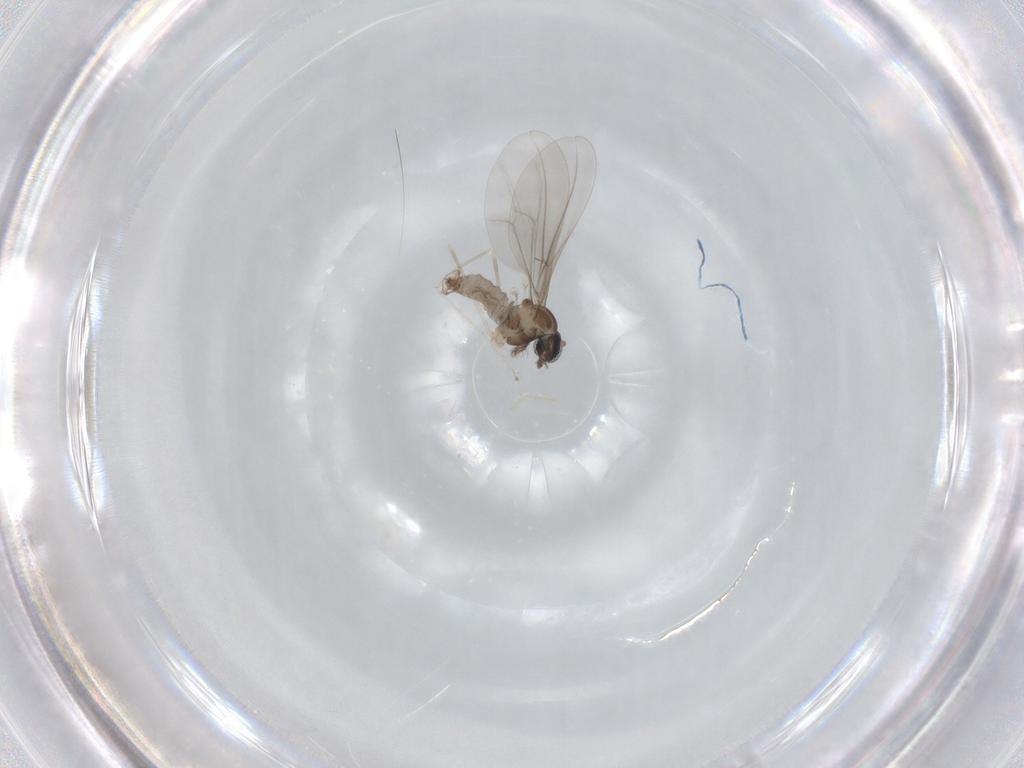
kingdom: Animalia
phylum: Arthropoda
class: Insecta
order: Diptera
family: Cecidomyiidae
